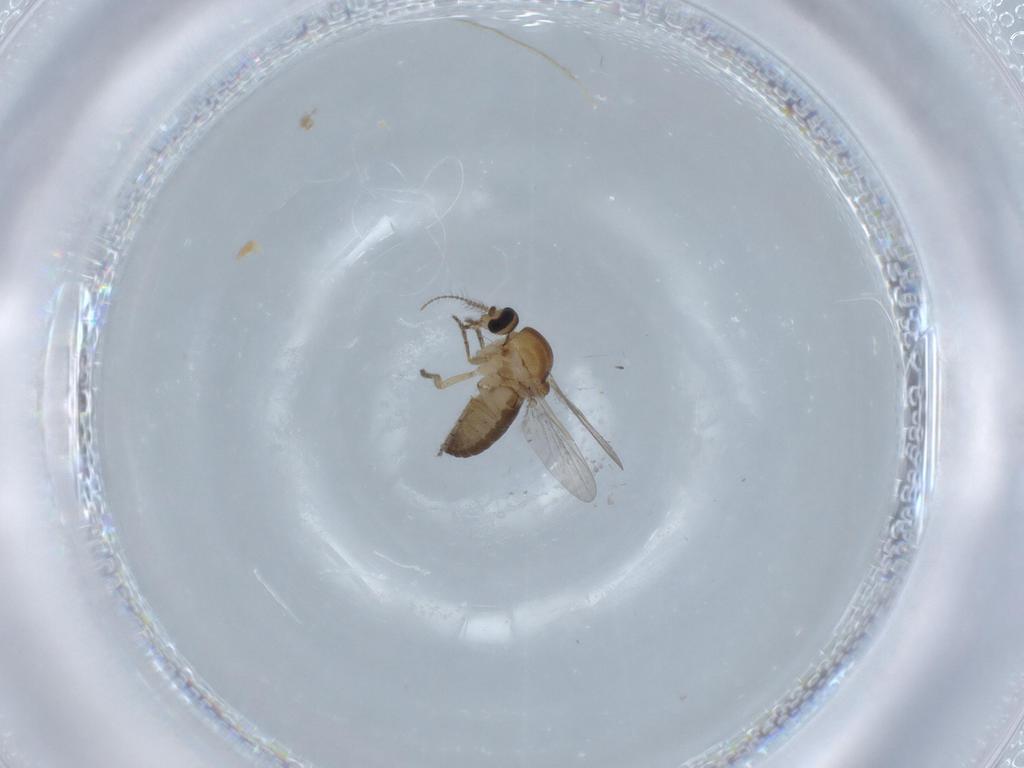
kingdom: Animalia
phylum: Arthropoda
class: Insecta
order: Diptera
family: Ceratopogonidae
